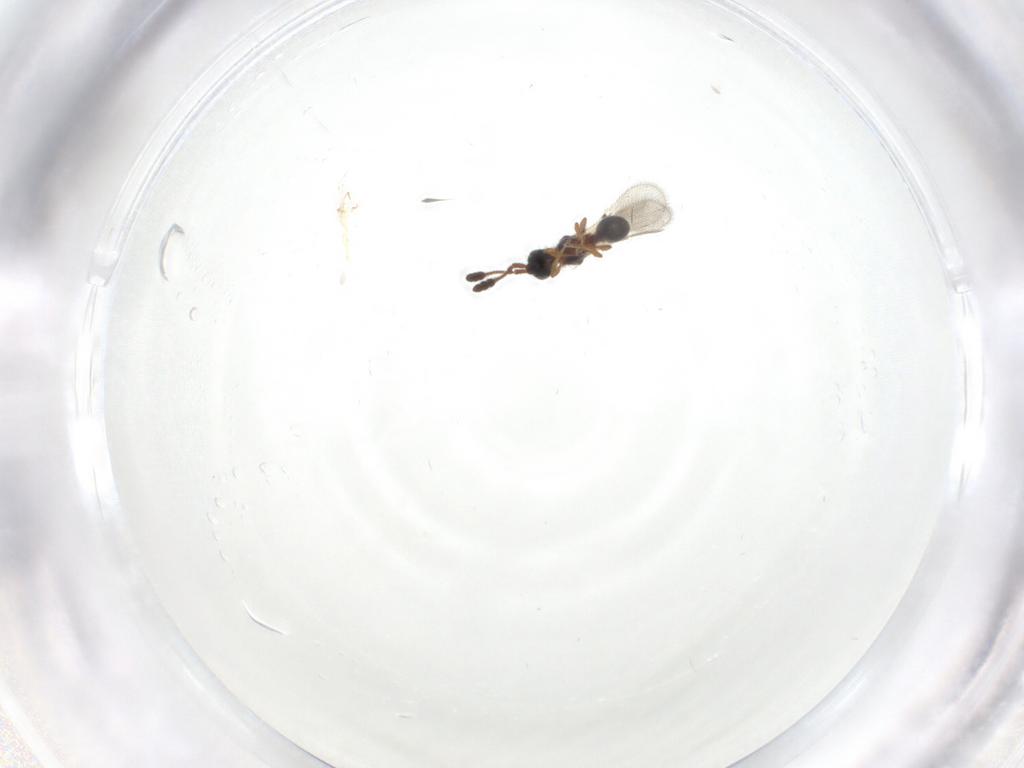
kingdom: Animalia
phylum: Arthropoda
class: Insecta
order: Hymenoptera
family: Diapriidae
